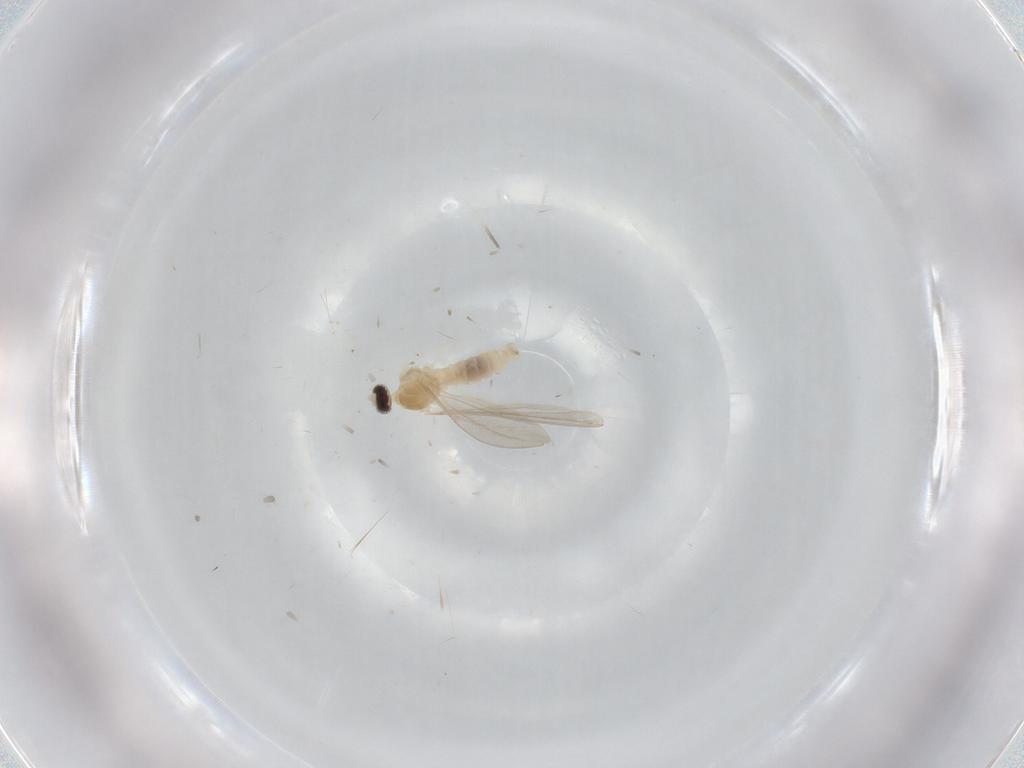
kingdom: Animalia
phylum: Arthropoda
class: Insecta
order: Diptera
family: Cecidomyiidae
